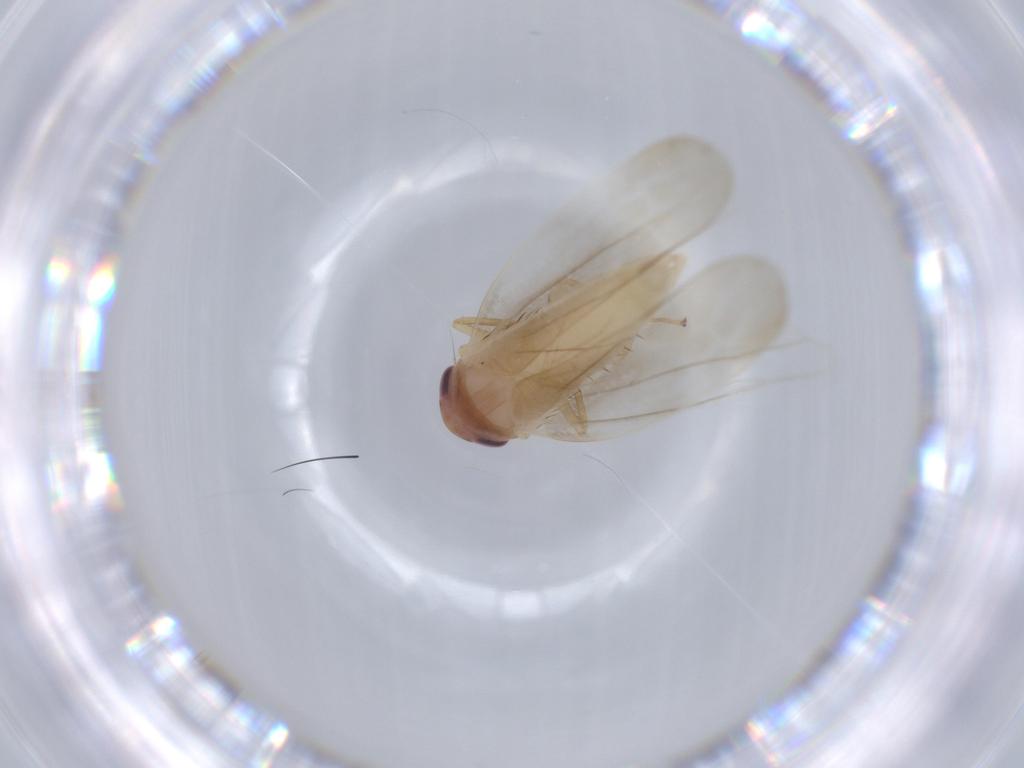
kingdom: Animalia
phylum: Arthropoda
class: Insecta
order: Hemiptera
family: Cicadellidae
